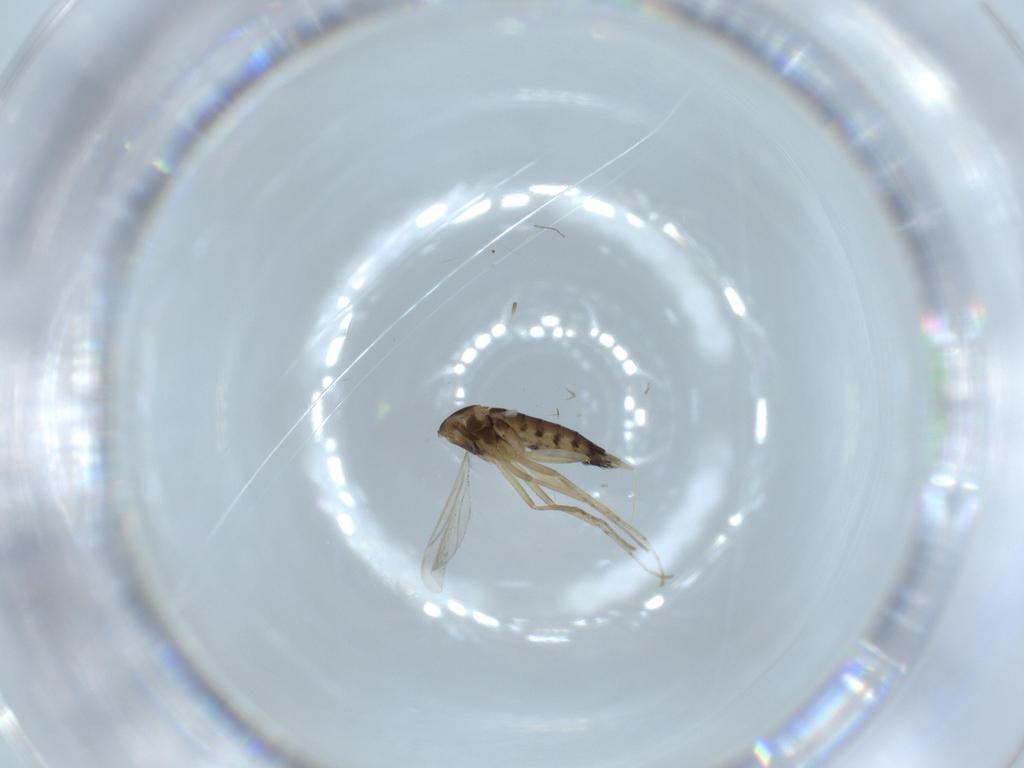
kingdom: Animalia
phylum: Arthropoda
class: Insecta
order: Diptera
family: Cecidomyiidae
